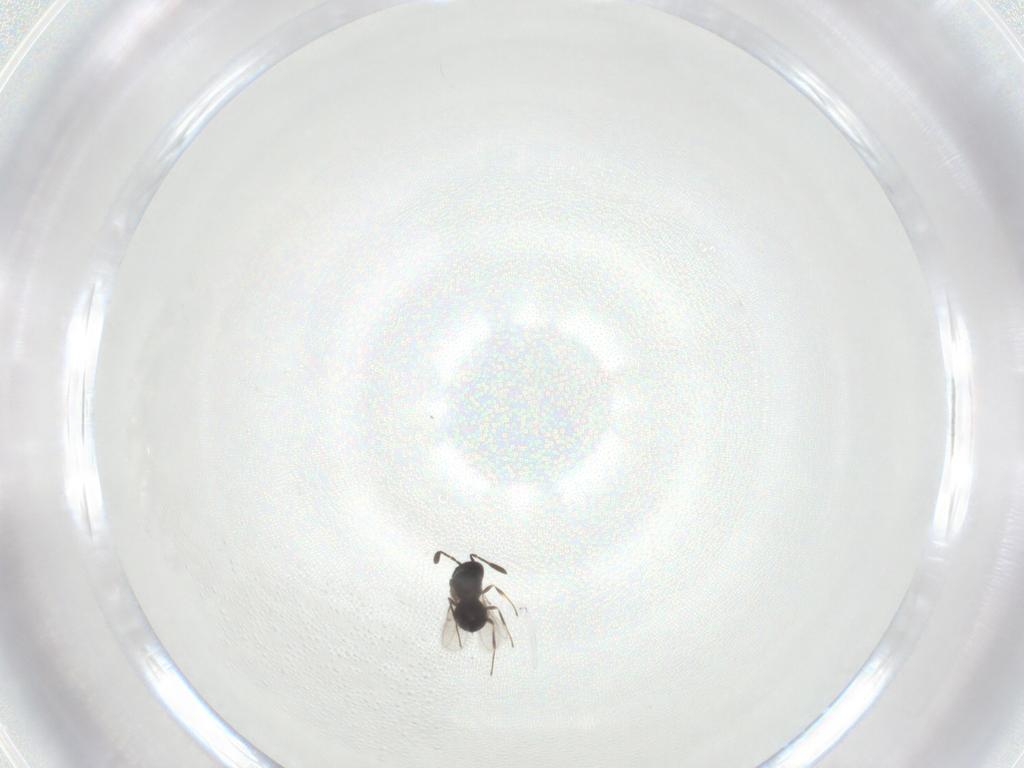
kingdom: Animalia
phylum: Arthropoda
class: Insecta
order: Hymenoptera
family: Scelionidae
